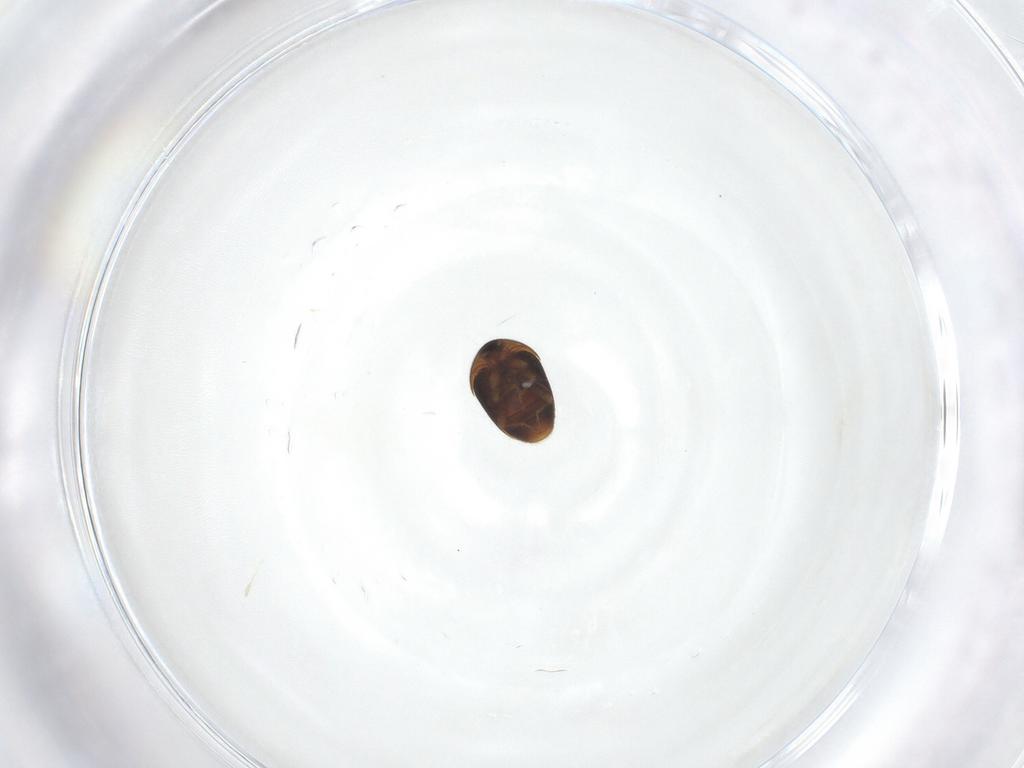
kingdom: Animalia
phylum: Arthropoda
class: Insecta
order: Coleoptera
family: Corylophidae
